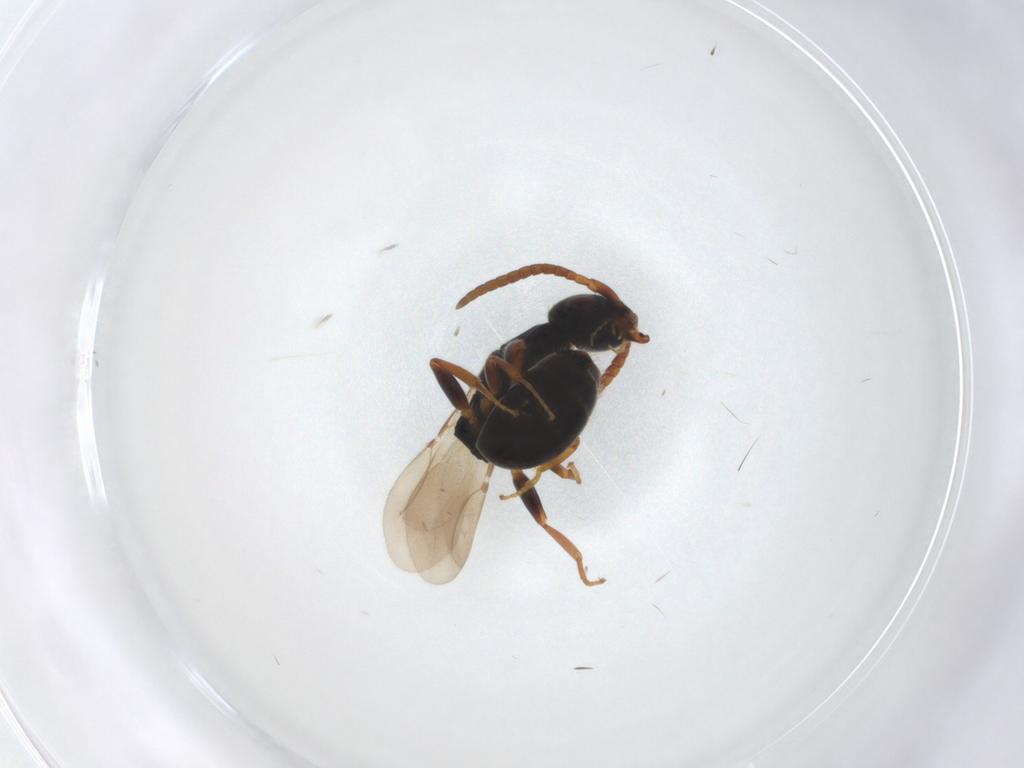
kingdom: Animalia
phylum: Arthropoda
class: Insecta
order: Hymenoptera
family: Bethylidae
